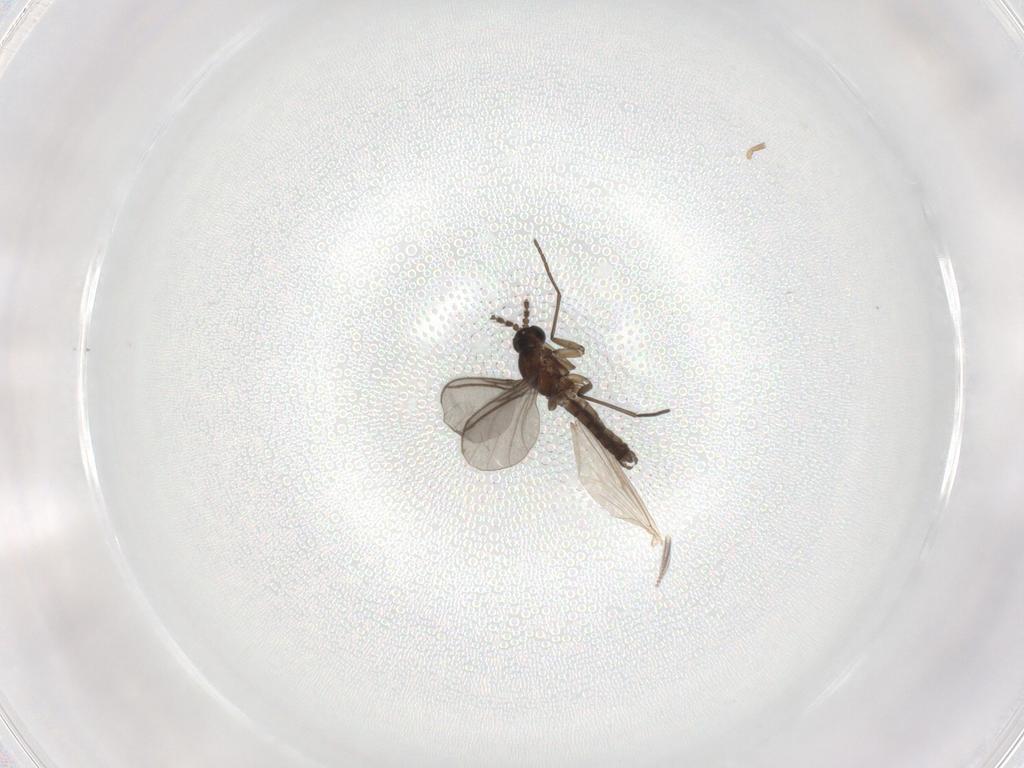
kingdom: Animalia
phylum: Arthropoda
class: Insecta
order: Diptera
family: Ceratopogonidae
